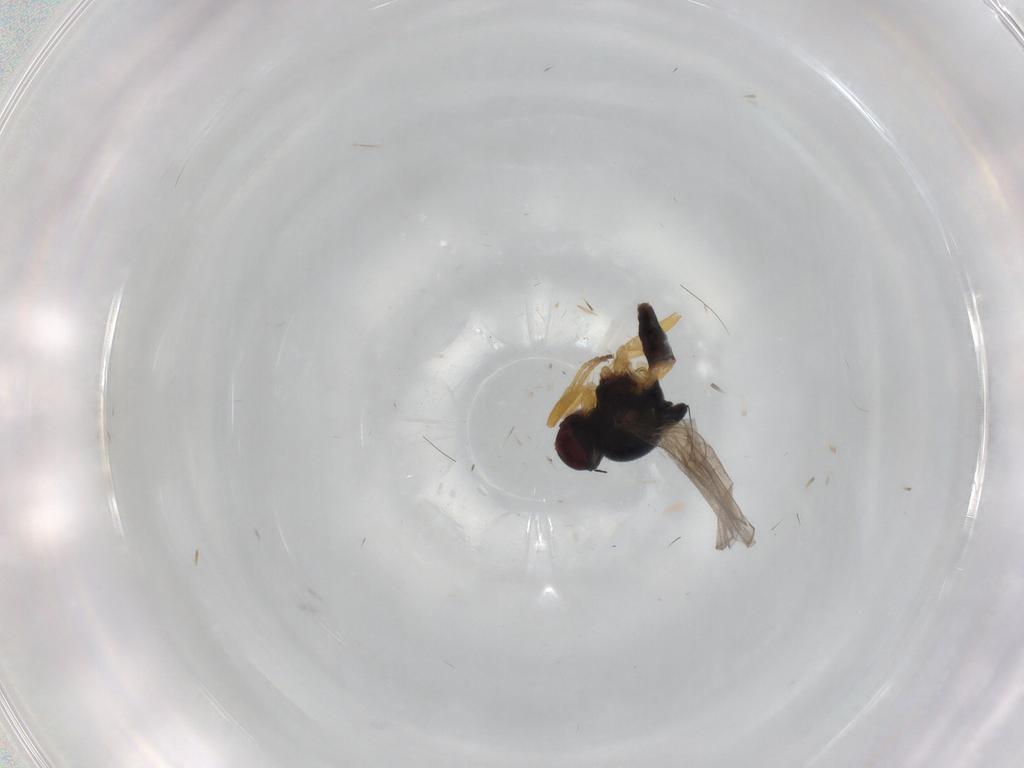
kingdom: Animalia
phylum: Arthropoda
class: Insecta
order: Diptera
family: Chloropidae
